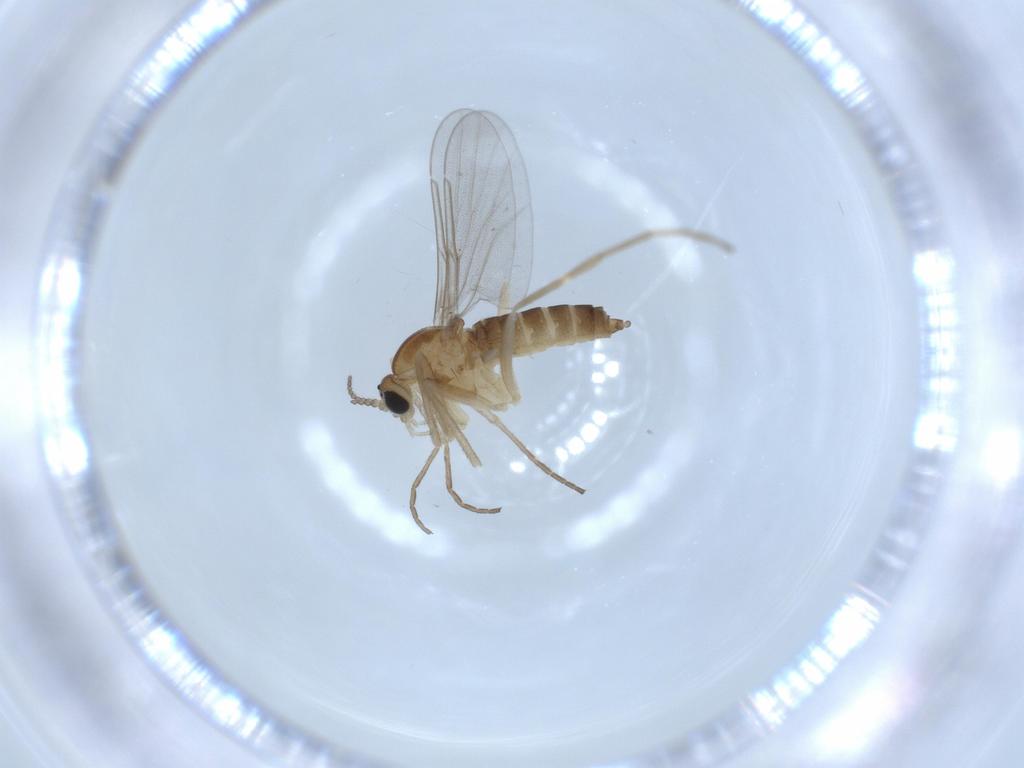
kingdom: Animalia
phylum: Arthropoda
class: Insecta
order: Diptera
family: Cecidomyiidae
